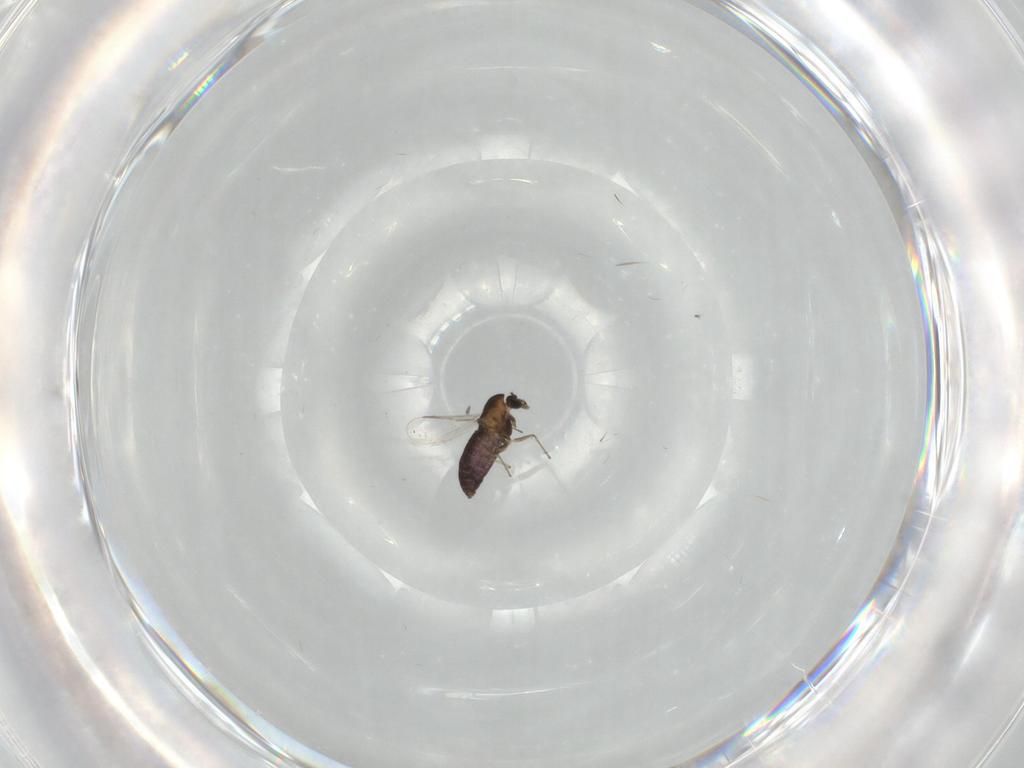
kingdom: Animalia
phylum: Arthropoda
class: Insecta
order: Diptera
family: Chironomidae
